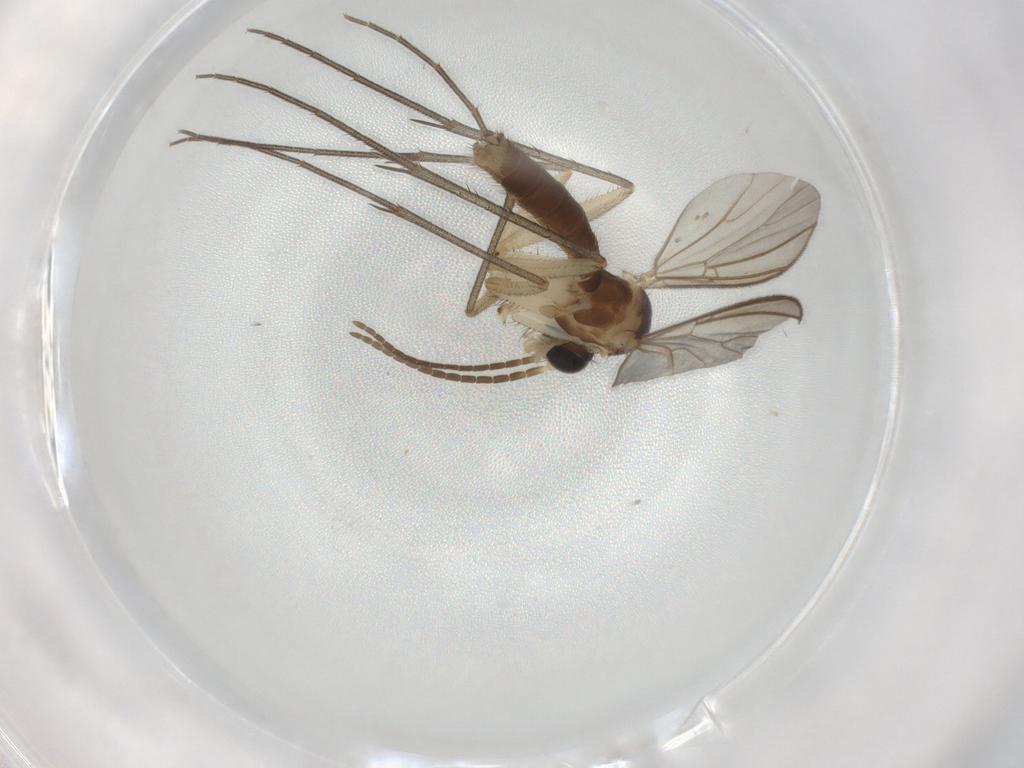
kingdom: Animalia
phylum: Arthropoda
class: Insecta
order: Diptera
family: Mycetophilidae
